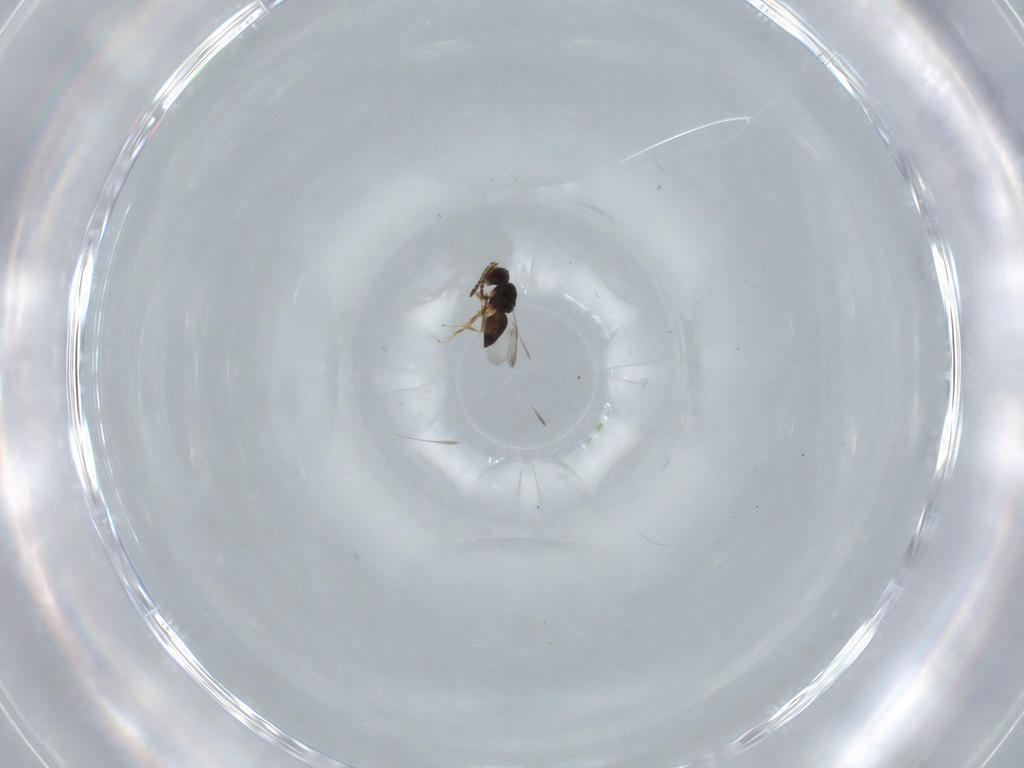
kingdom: Animalia
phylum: Arthropoda
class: Insecta
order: Hymenoptera
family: Ceraphronidae
